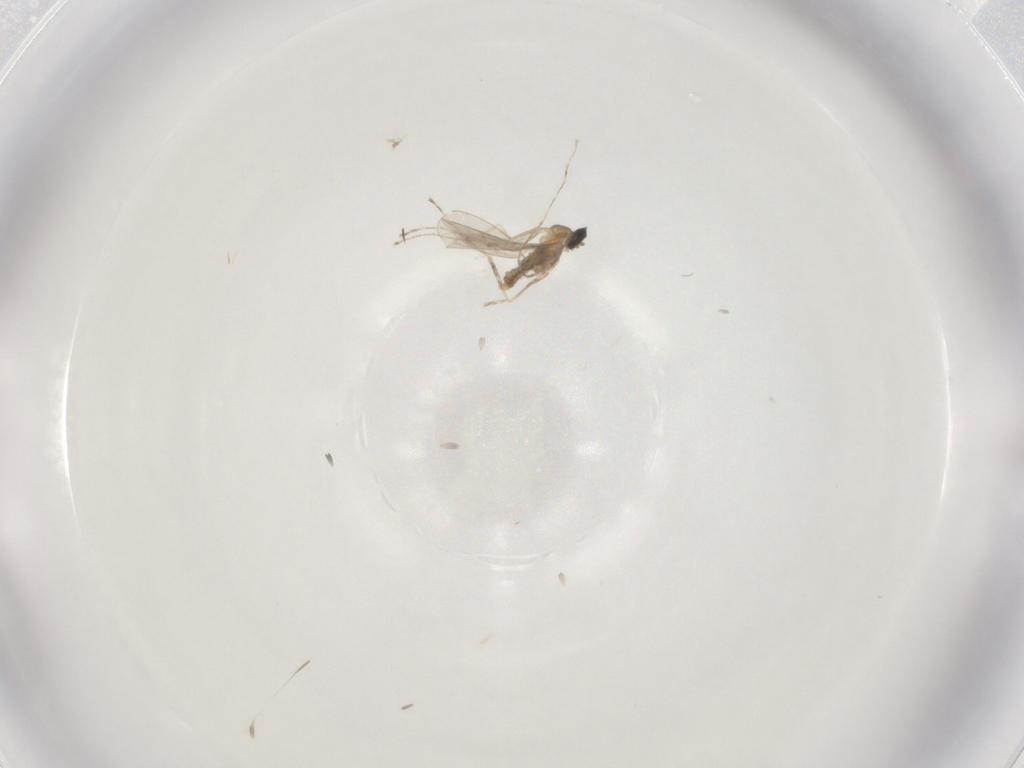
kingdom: Animalia
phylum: Arthropoda
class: Insecta
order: Diptera
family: Cecidomyiidae
